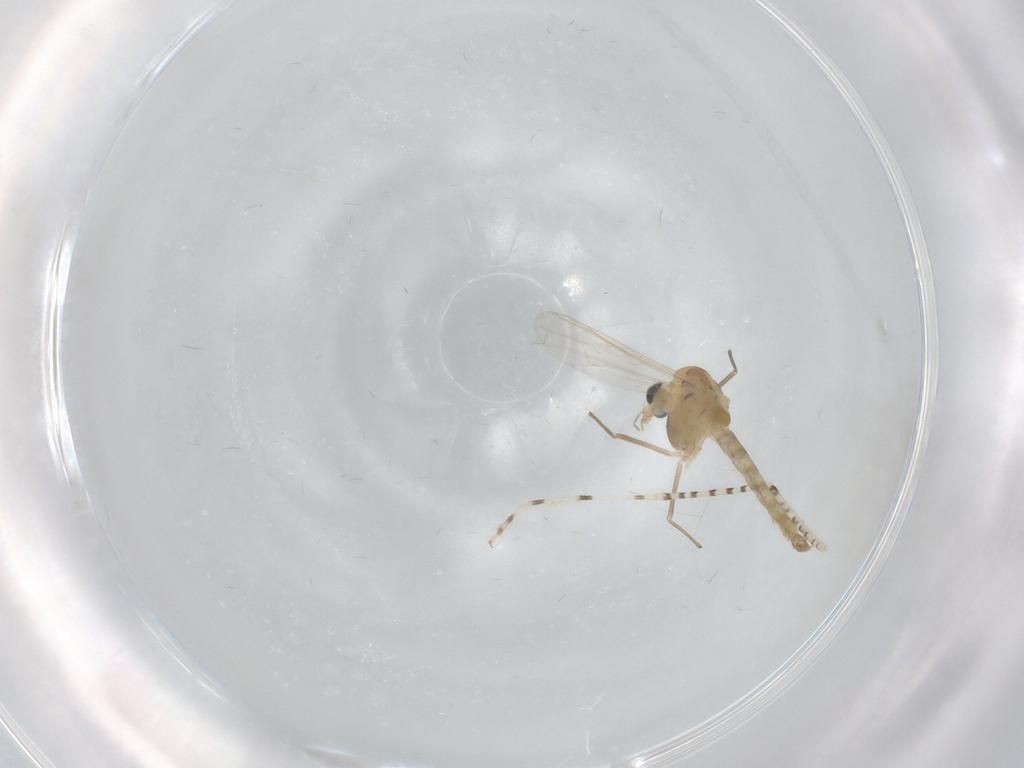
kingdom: Animalia
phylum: Arthropoda
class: Insecta
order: Diptera
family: Chironomidae
